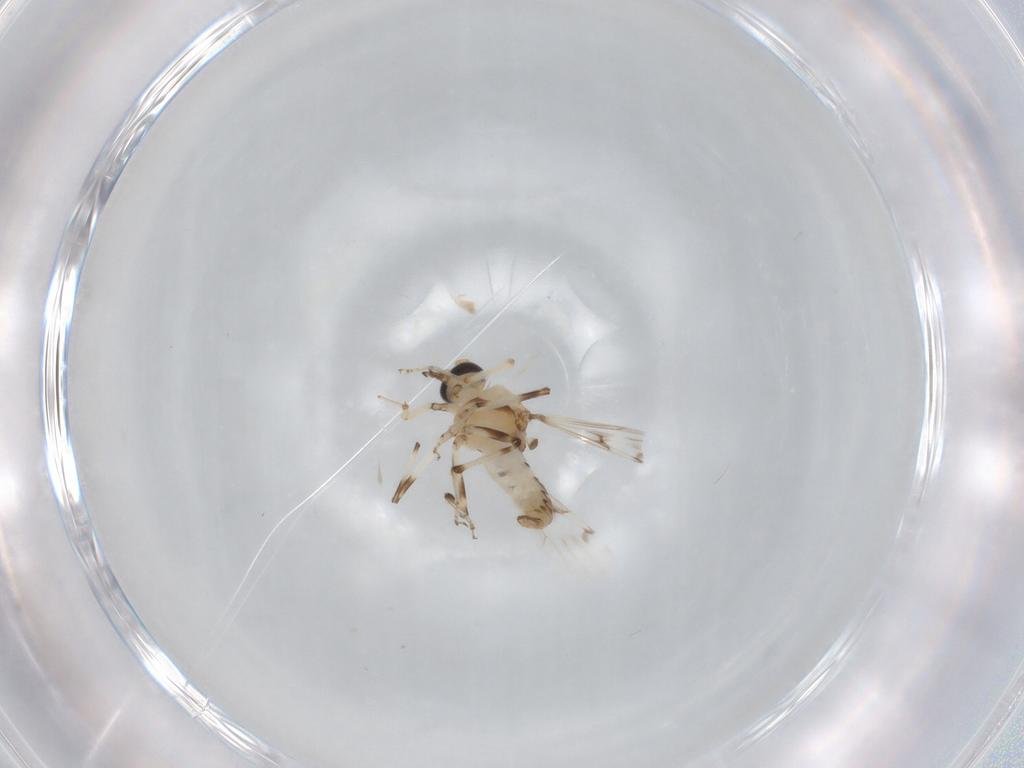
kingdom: Animalia
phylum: Arthropoda
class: Insecta
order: Diptera
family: Ceratopogonidae
